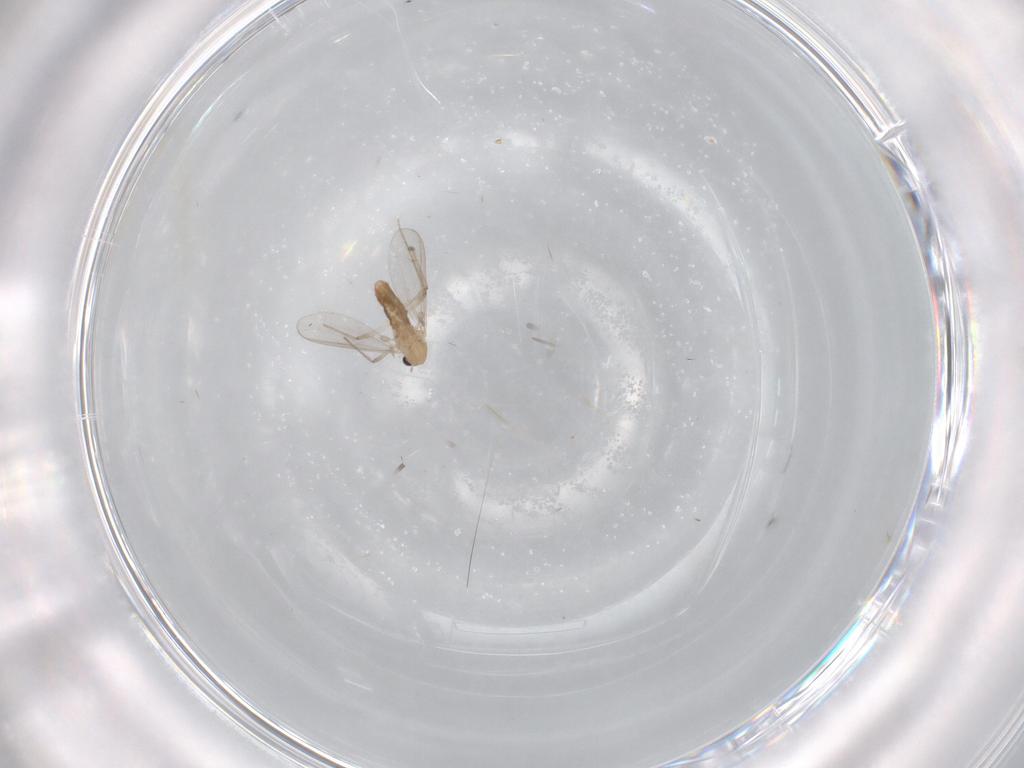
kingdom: Animalia
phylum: Arthropoda
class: Insecta
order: Diptera
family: Chironomidae
